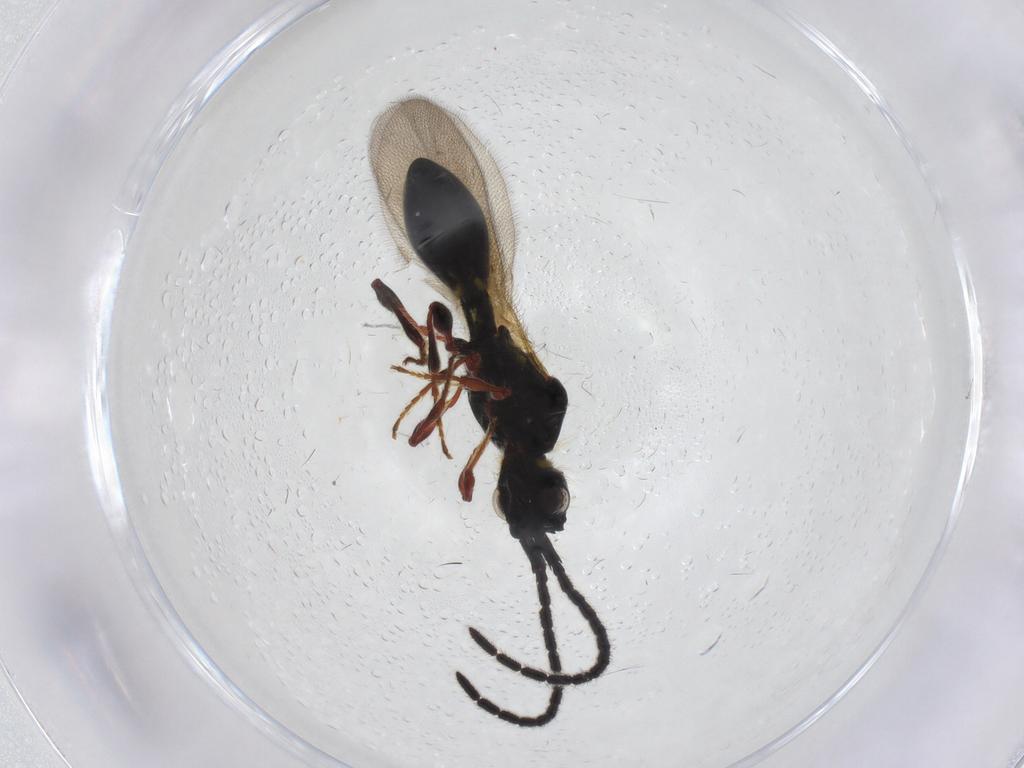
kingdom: Animalia
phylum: Arthropoda
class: Insecta
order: Hymenoptera
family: Diapriidae
